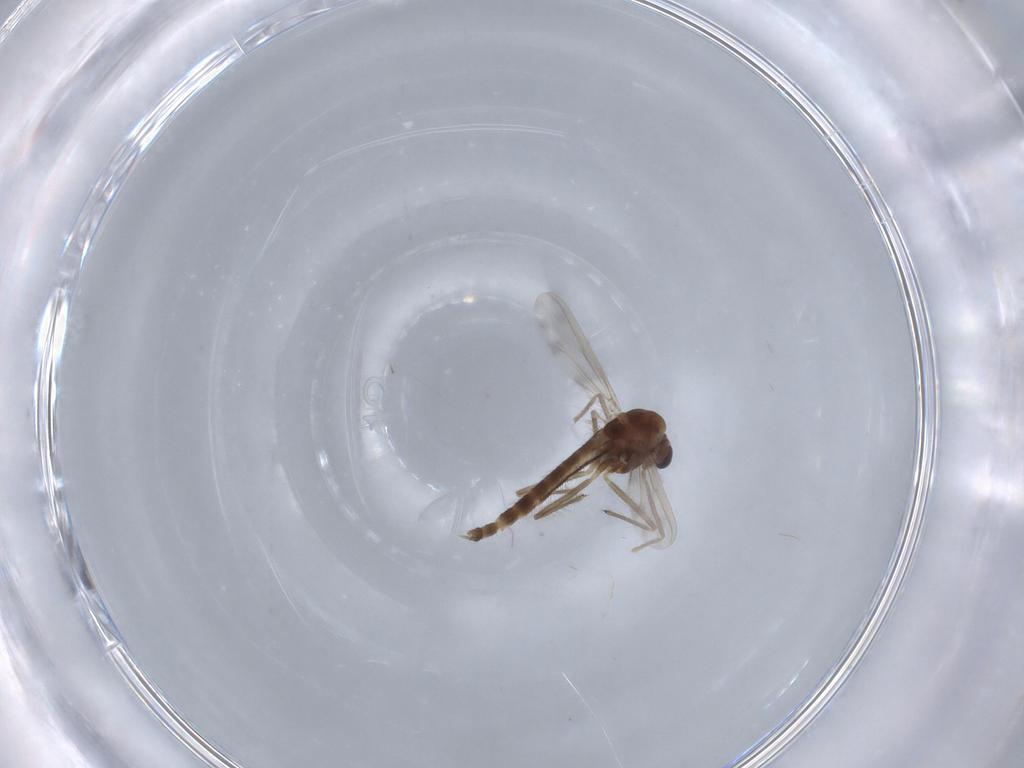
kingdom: Animalia
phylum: Arthropoda
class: Insecta
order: Diptera
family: Chironomidae
